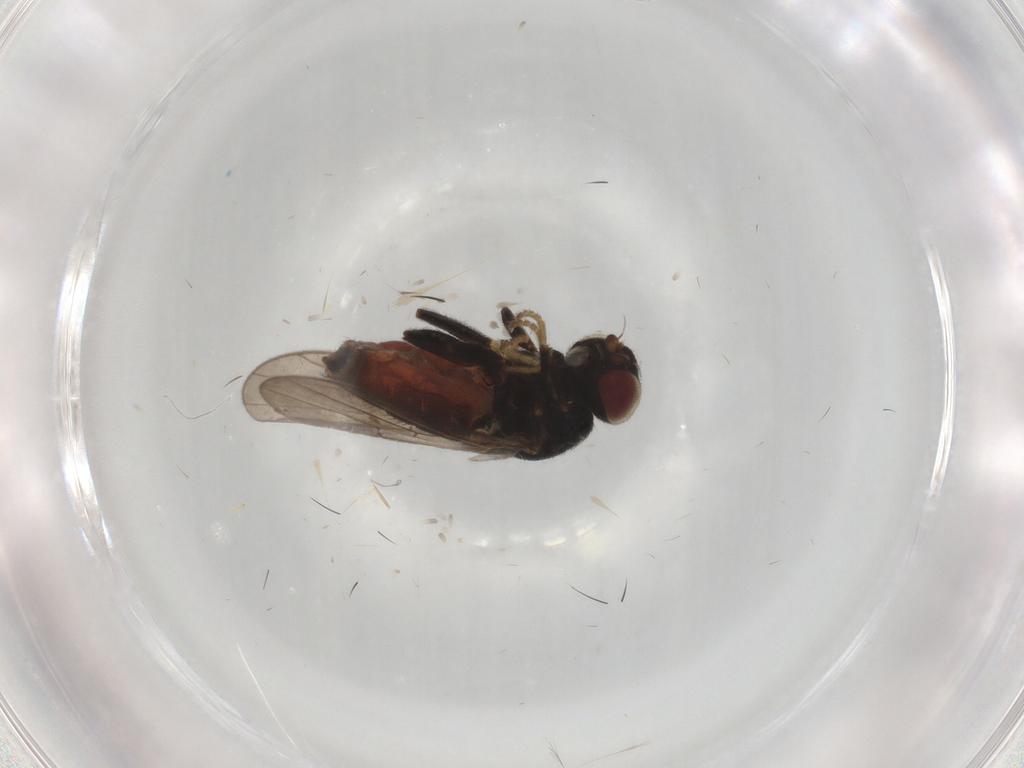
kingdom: Animalia
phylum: Arthropoda
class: Insecta
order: Diptera
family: Chloropidae
